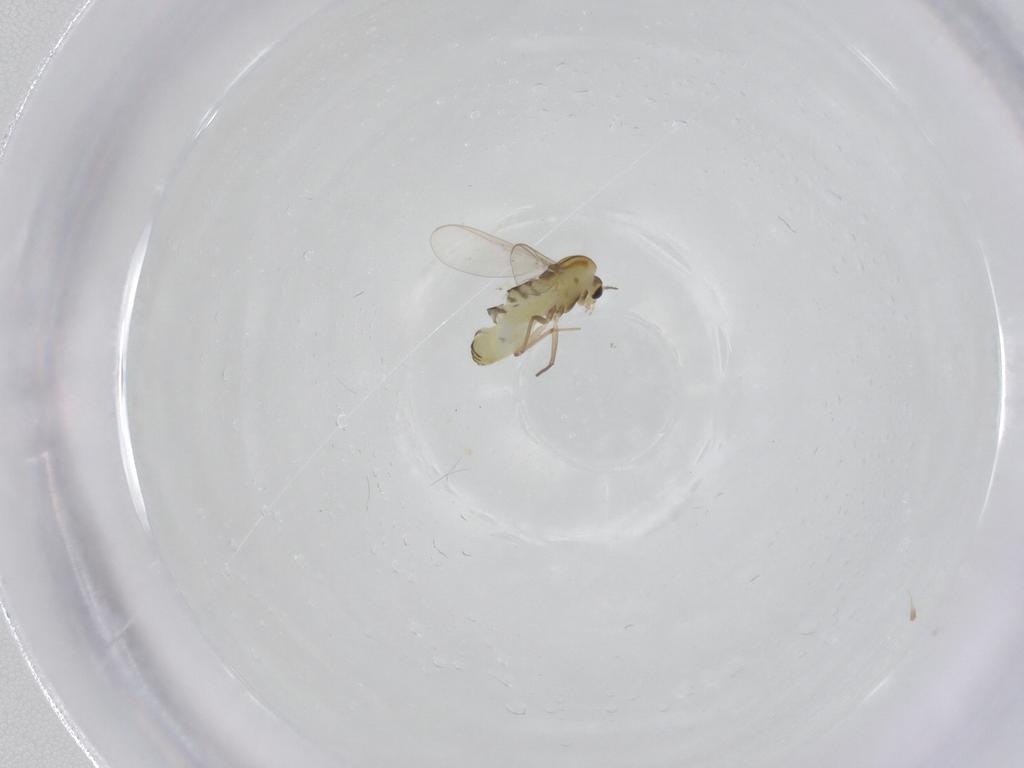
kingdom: Animalia
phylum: Arthropoda
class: Insecta
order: Diptera
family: Chironomidae
